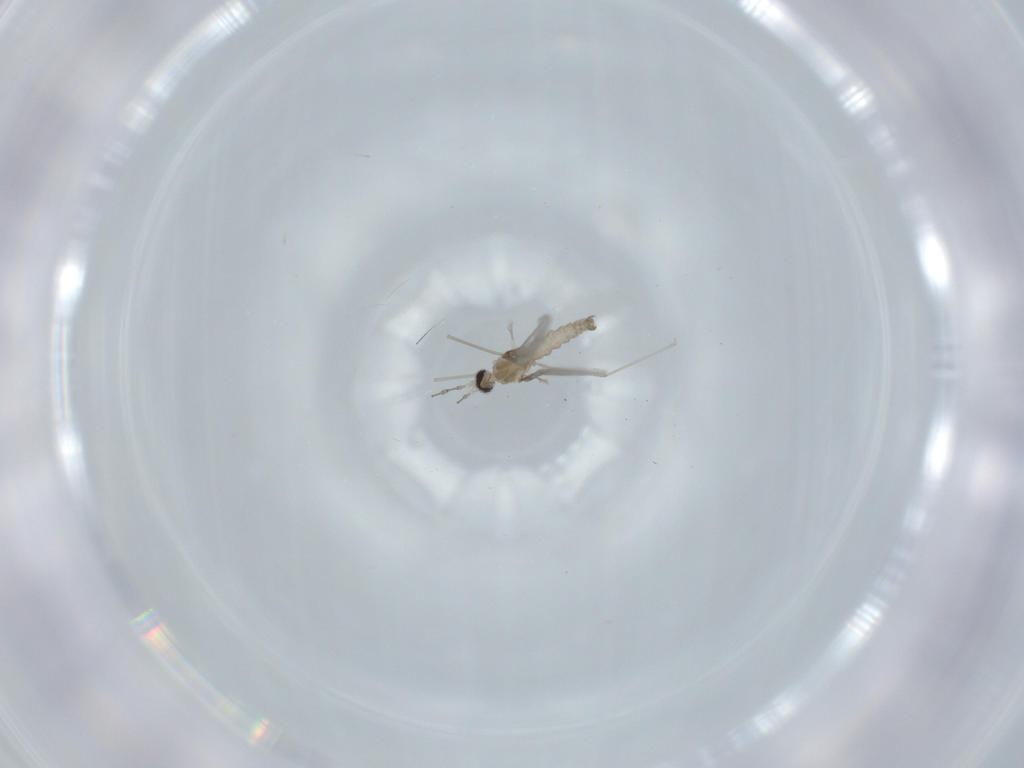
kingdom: Animalia
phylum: Arthropoda
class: Insecta
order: Diptera
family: Cecidomyiidae
